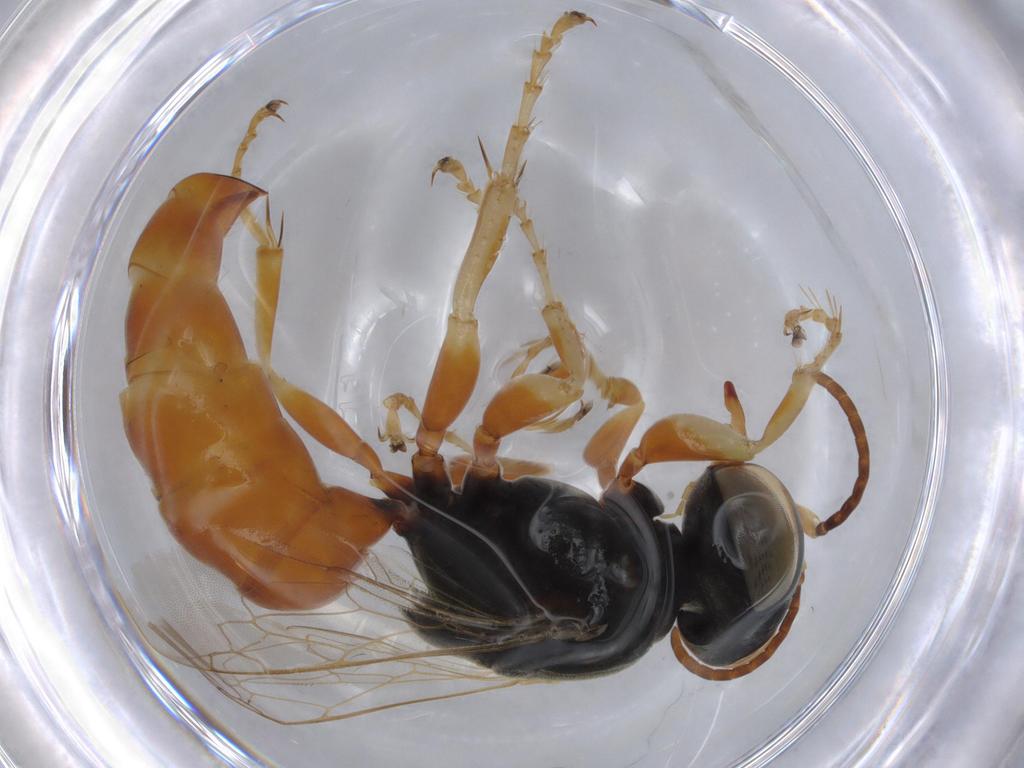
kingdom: Animalia
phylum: Arthropoda
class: Insecta
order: Hymenoptera
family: Crabronidae
